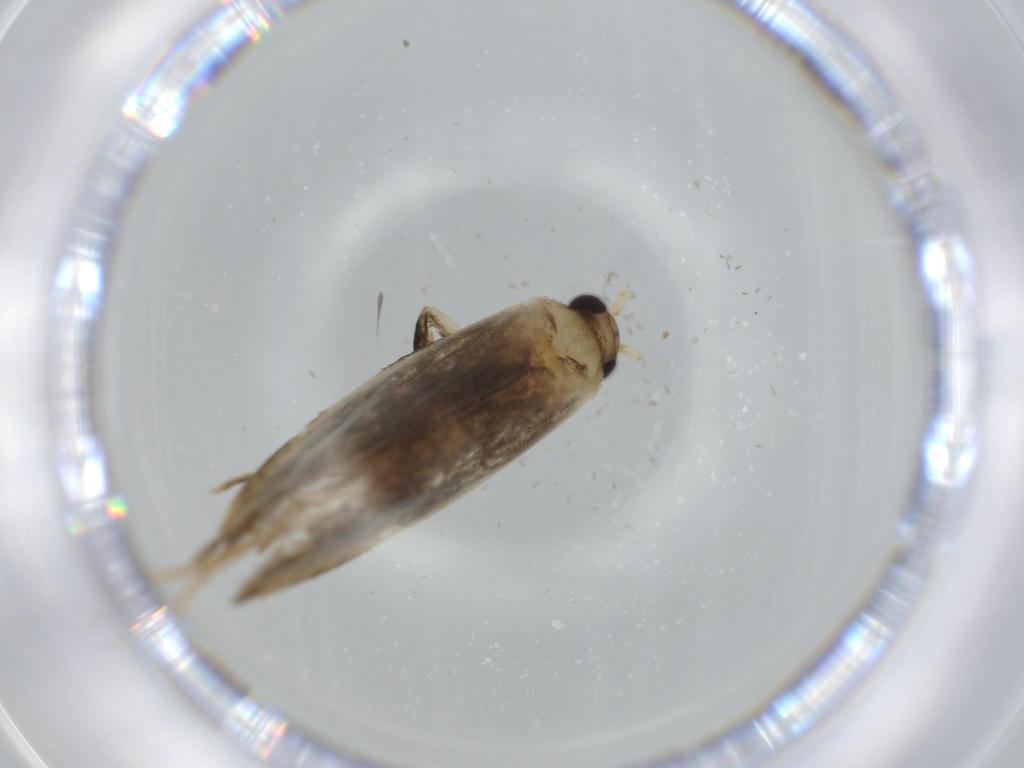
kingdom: Animalia
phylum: Arthropoda
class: Insecta
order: Lepidoptera
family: Tineidae
